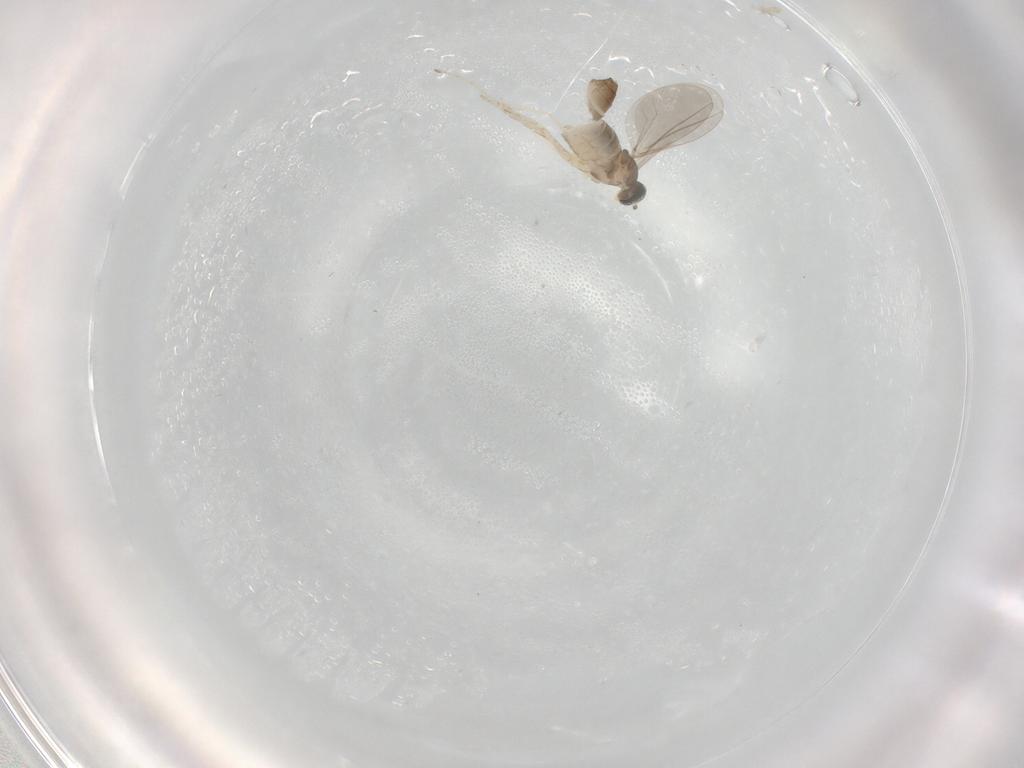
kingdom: Animalia
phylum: Arthropoda
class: Insecta
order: Diptera
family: Cecidomyiidae
